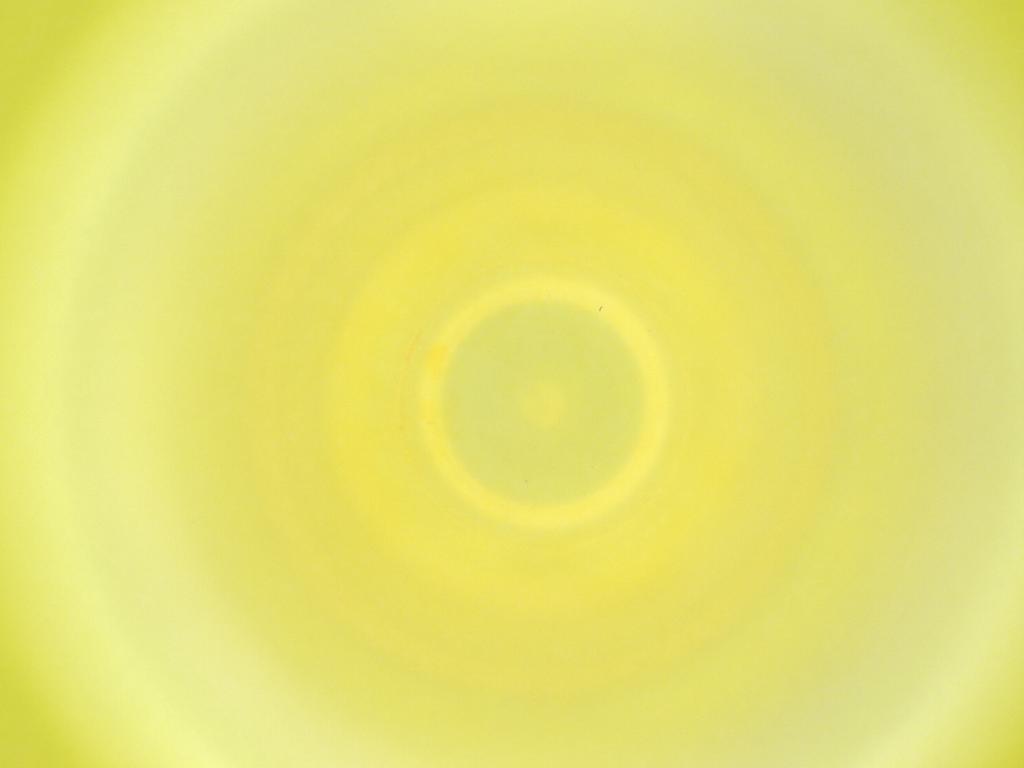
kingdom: Animalia
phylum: Arthropoda
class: Insecta
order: Diptera
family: Cecidomyiidae
